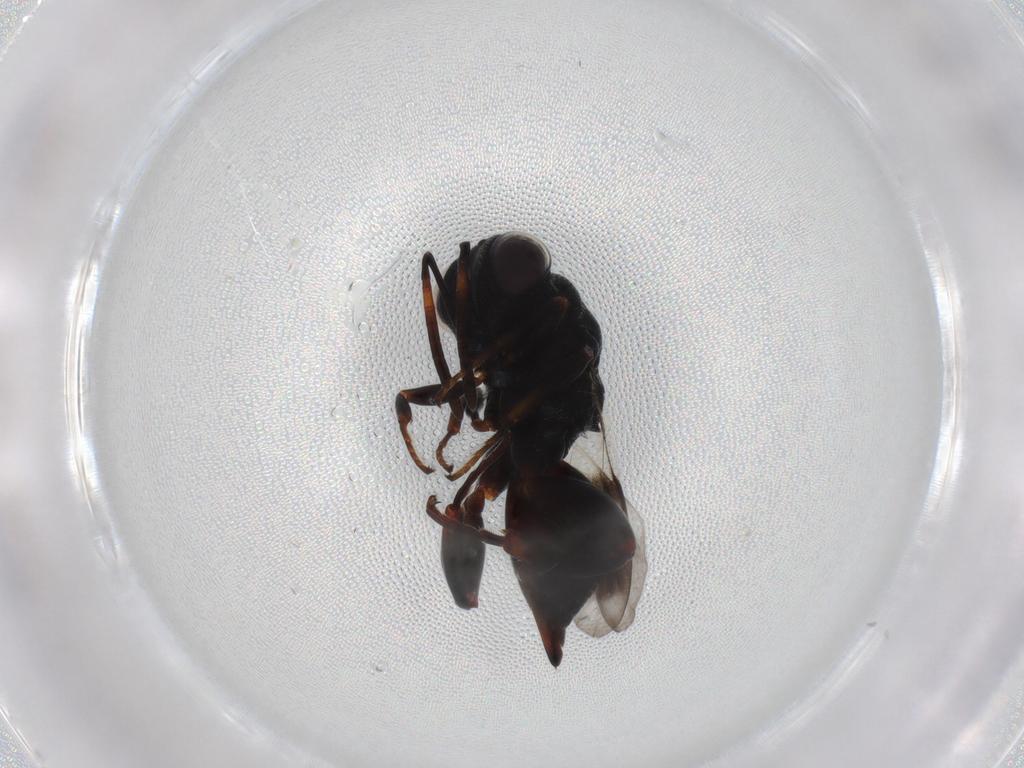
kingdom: Animalia
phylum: Arthropoda
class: Insecta
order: Hymenoptera
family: Chalcididae
